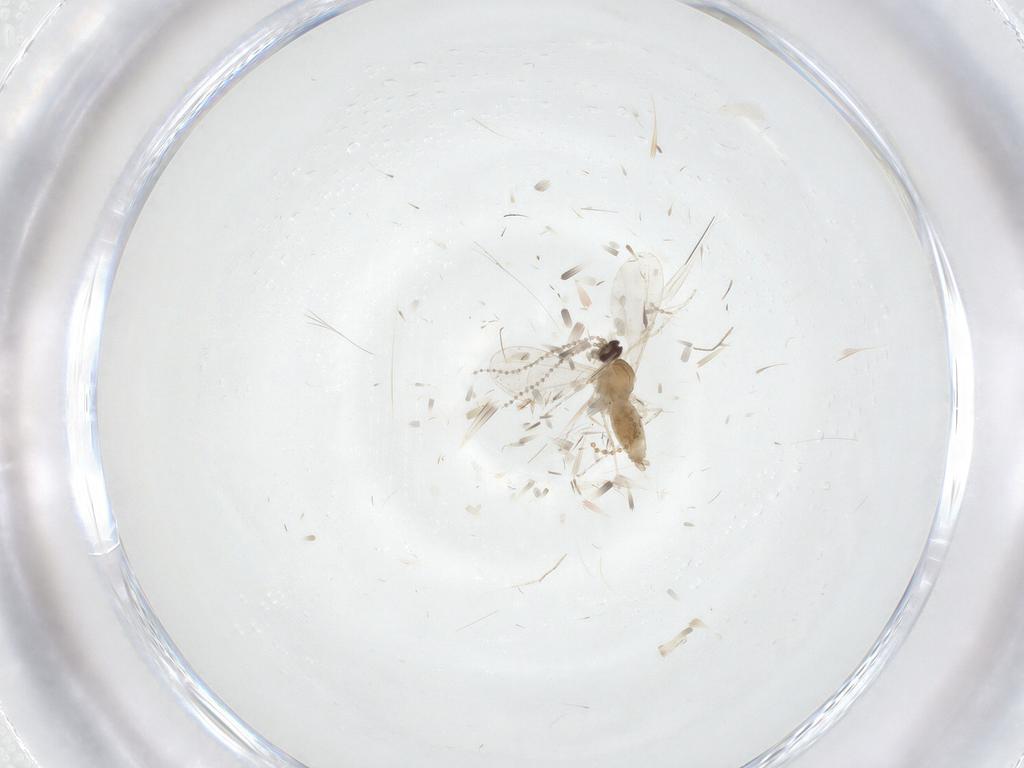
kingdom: Animalia
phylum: Arthropoda
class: Insecta
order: Diptera
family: Cecidomyiidae
